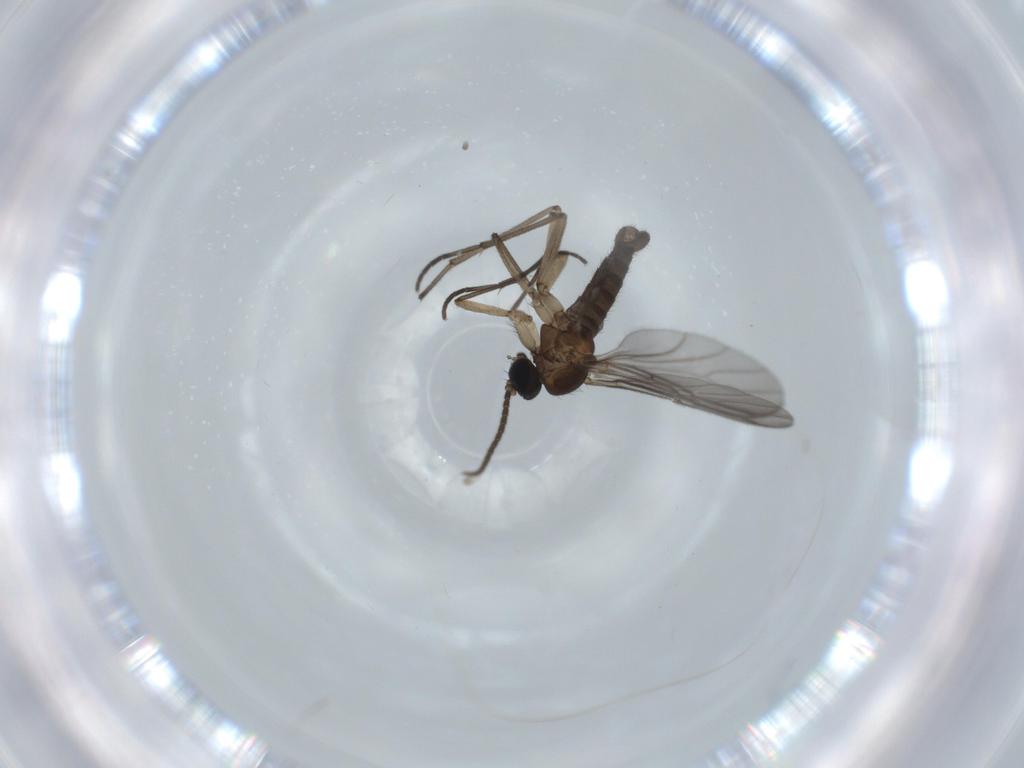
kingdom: Animalia
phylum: Arthropoda
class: Insecta
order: Diptera
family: Sciaridae
